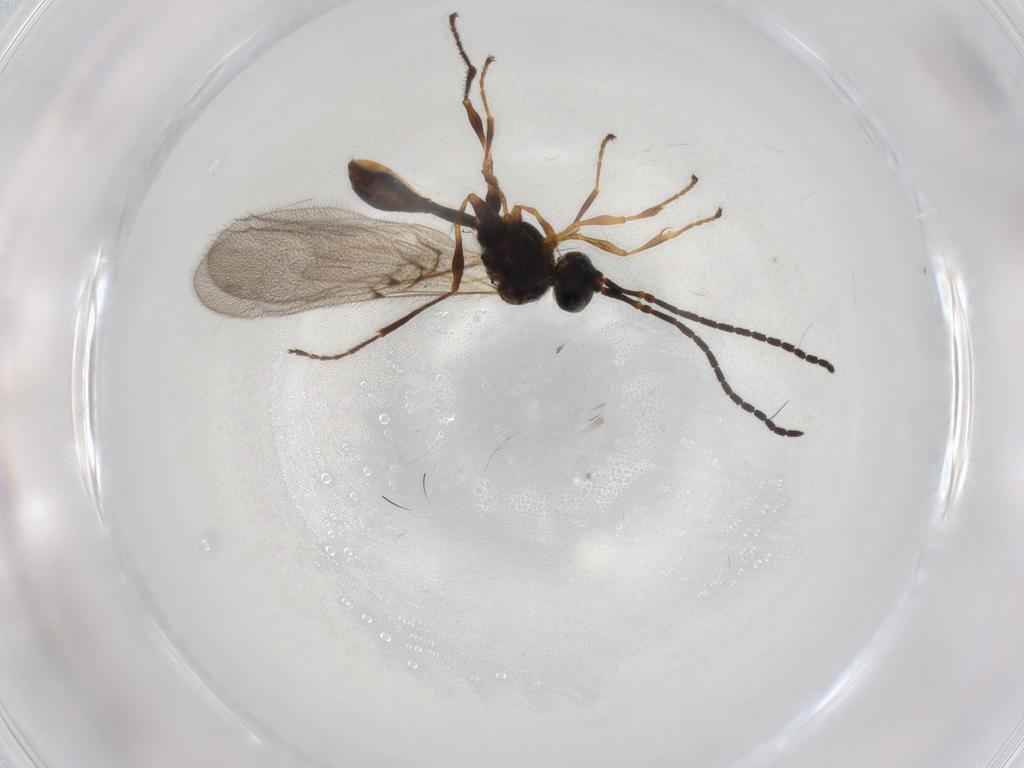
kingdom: Animalia
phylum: Arthropoda
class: Insecta
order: Hymenoptera
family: Diapriidae
